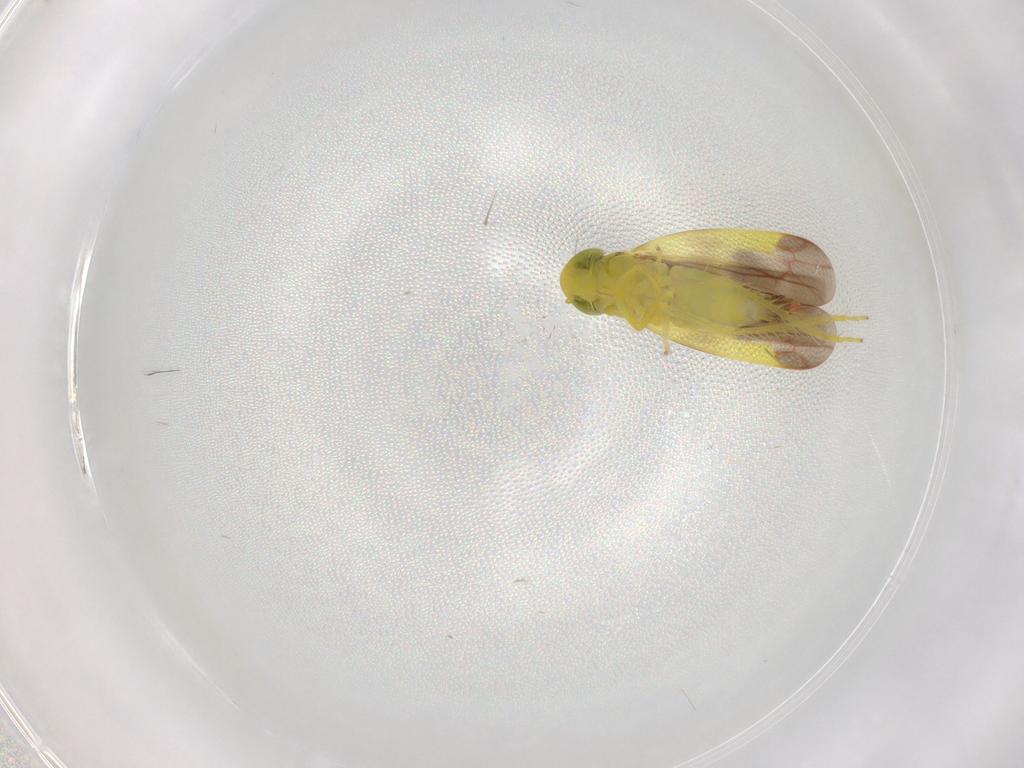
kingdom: Animalia
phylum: Arthropoda
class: Insecta
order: Hemiptera
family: Cicadellidae
